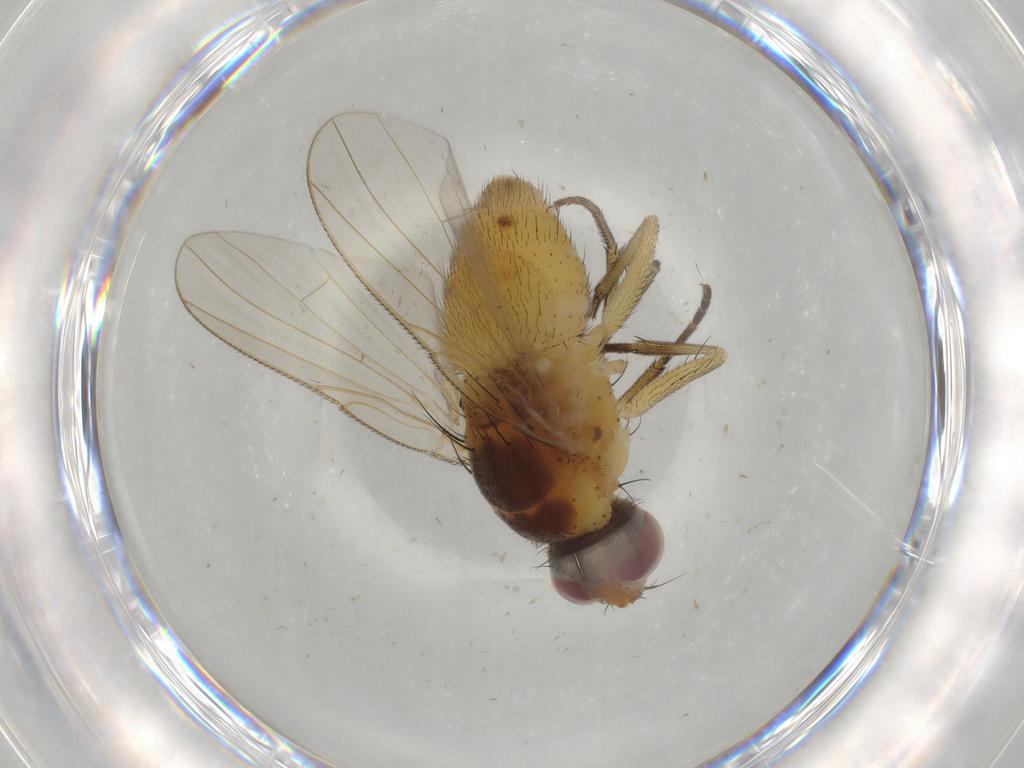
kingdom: Animalia
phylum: Arthropoda
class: Insecta
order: Diptera
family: Muscidae
